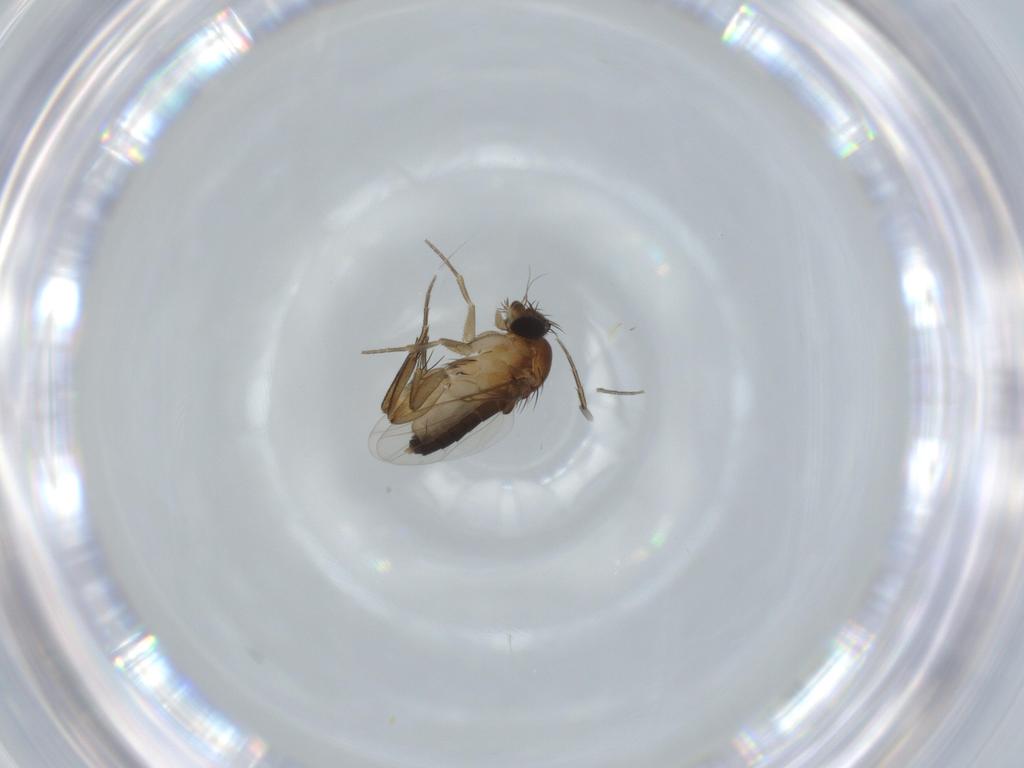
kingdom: Animalia
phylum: Arthropoda
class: Insecta
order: Diptera
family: Phoridae
